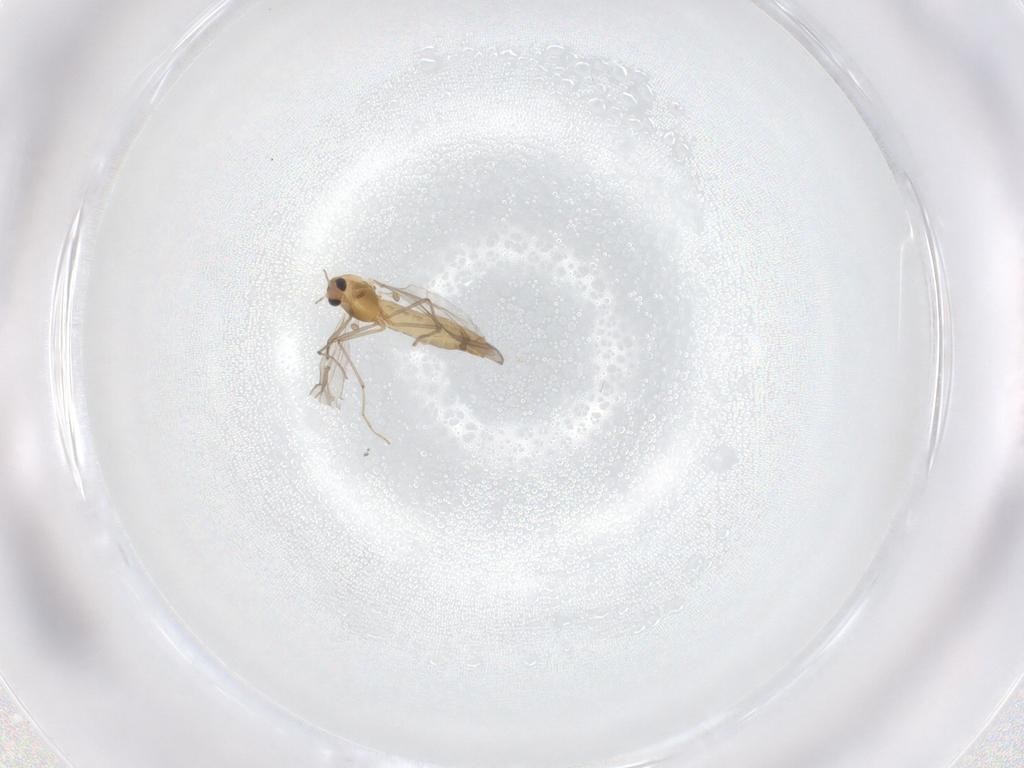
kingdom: Animalia
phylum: Arthropoda
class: Insecta
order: Diptera
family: Chironomidae
